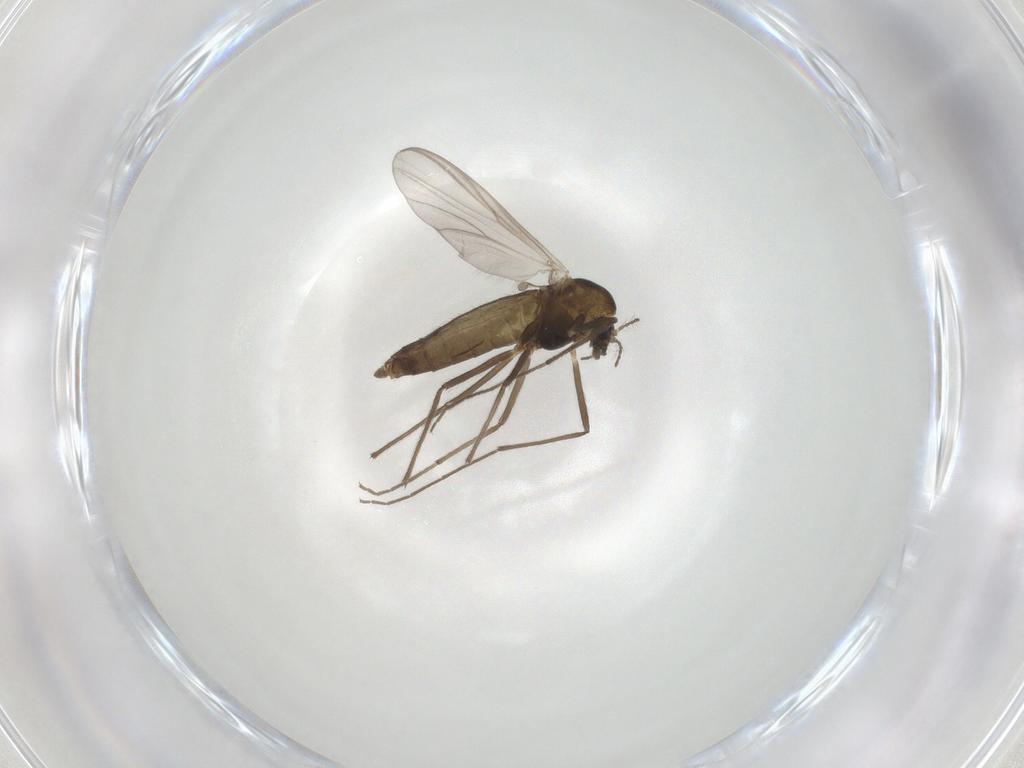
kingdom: Animalia
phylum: Arthropoda
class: Insecta
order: Diptera
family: Chironomidae
